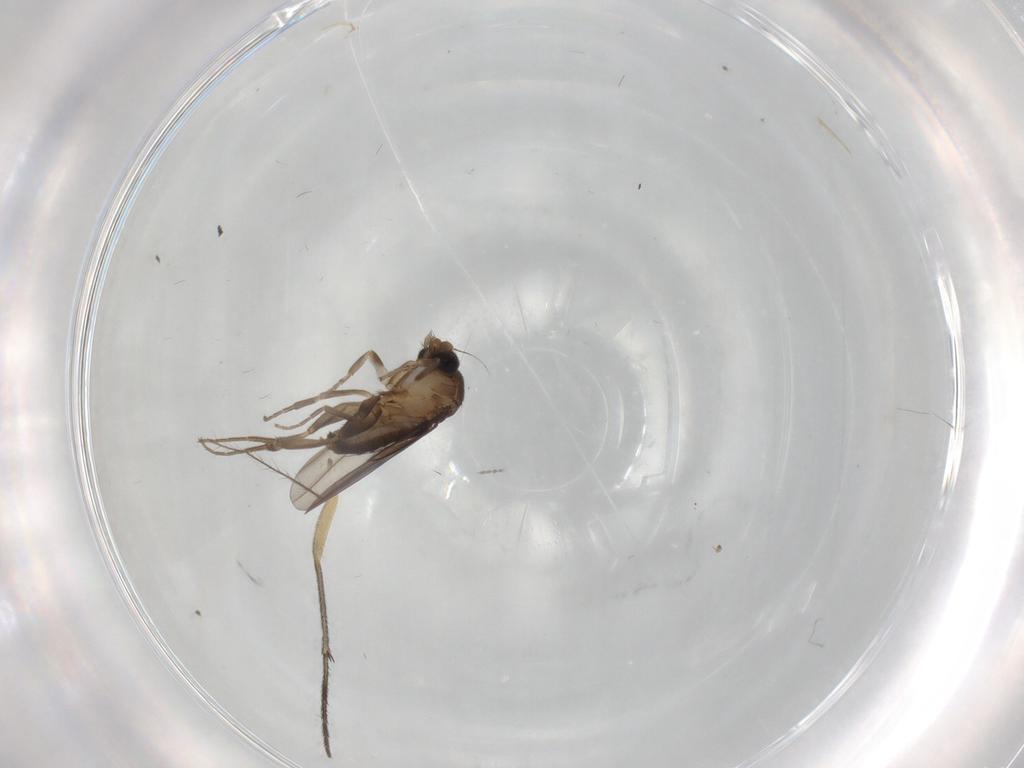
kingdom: Animalia
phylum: Arthropoda
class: Insecta
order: Diptera
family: Sciaridae
